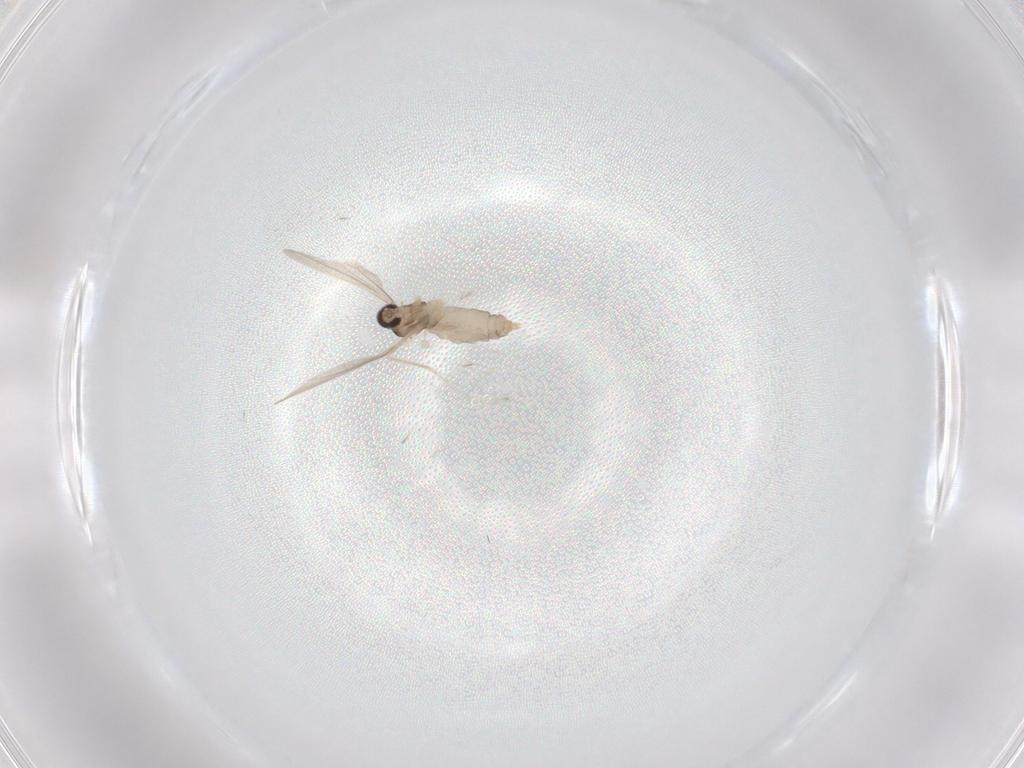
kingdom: Animalia
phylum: Arthropoda
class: Insecta
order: Diptera
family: Cecidomyiidae
